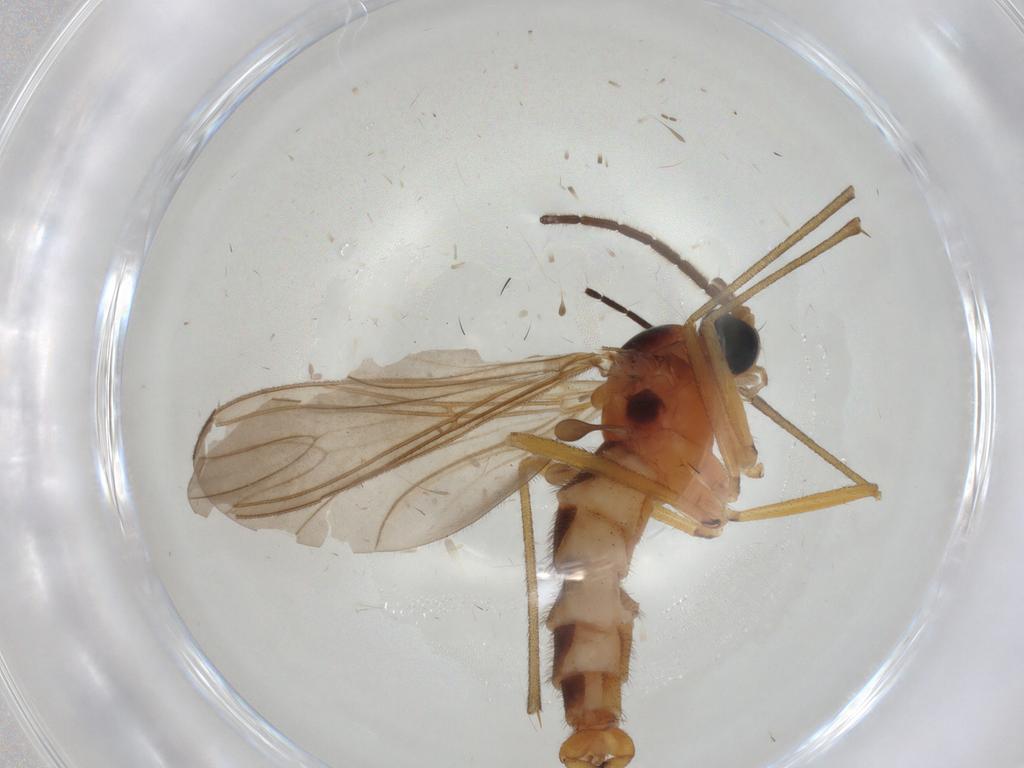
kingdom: Animalia
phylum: Arthropoda
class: Insecta
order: Diptera
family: Sciaridae
